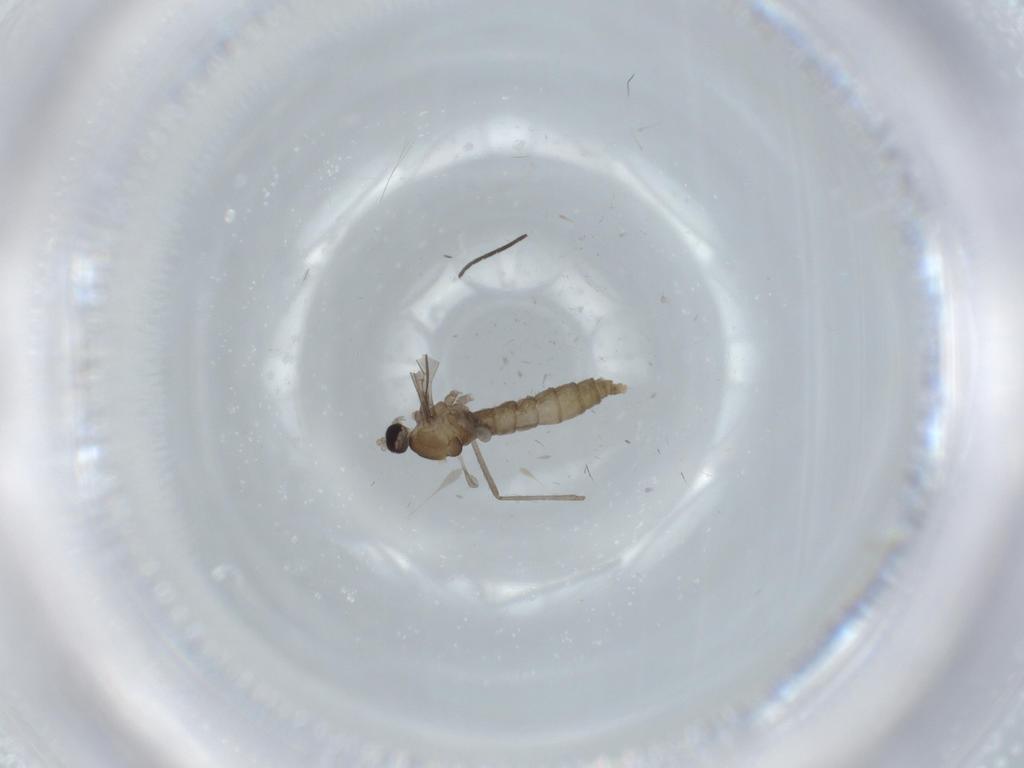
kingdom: Animalia
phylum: Arthropoda
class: Insecta
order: Diptera
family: Cecidomyiidae
